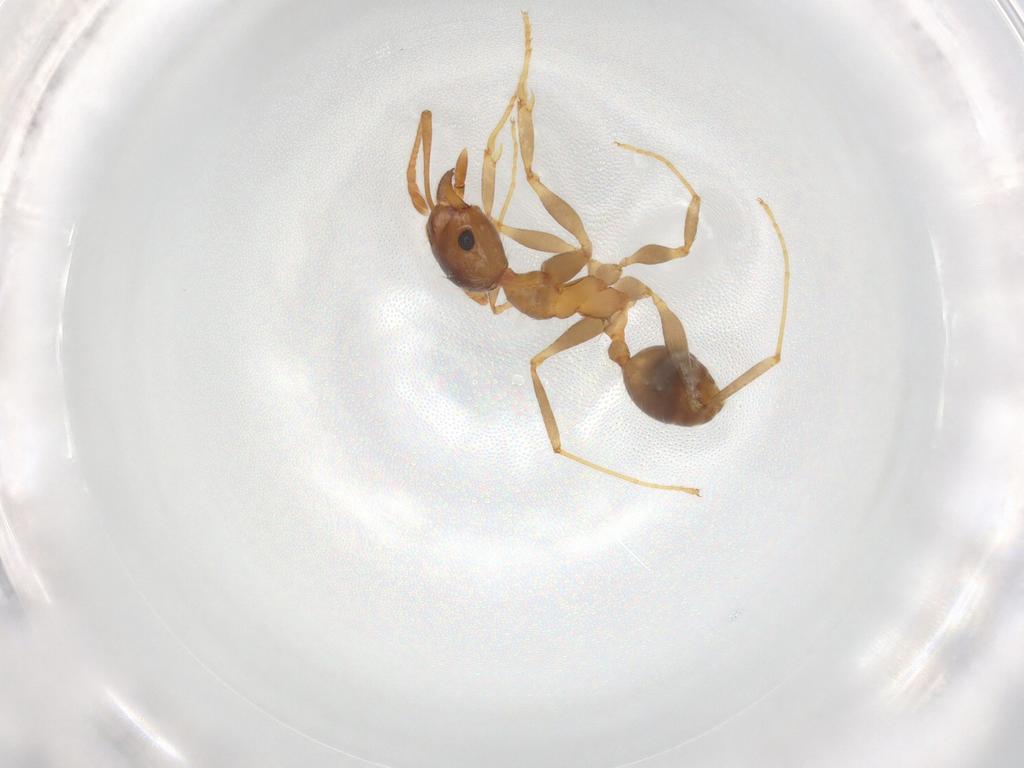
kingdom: Animalia
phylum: Arthropoda
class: Insecta
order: Hymenoptera
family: Formicidae
